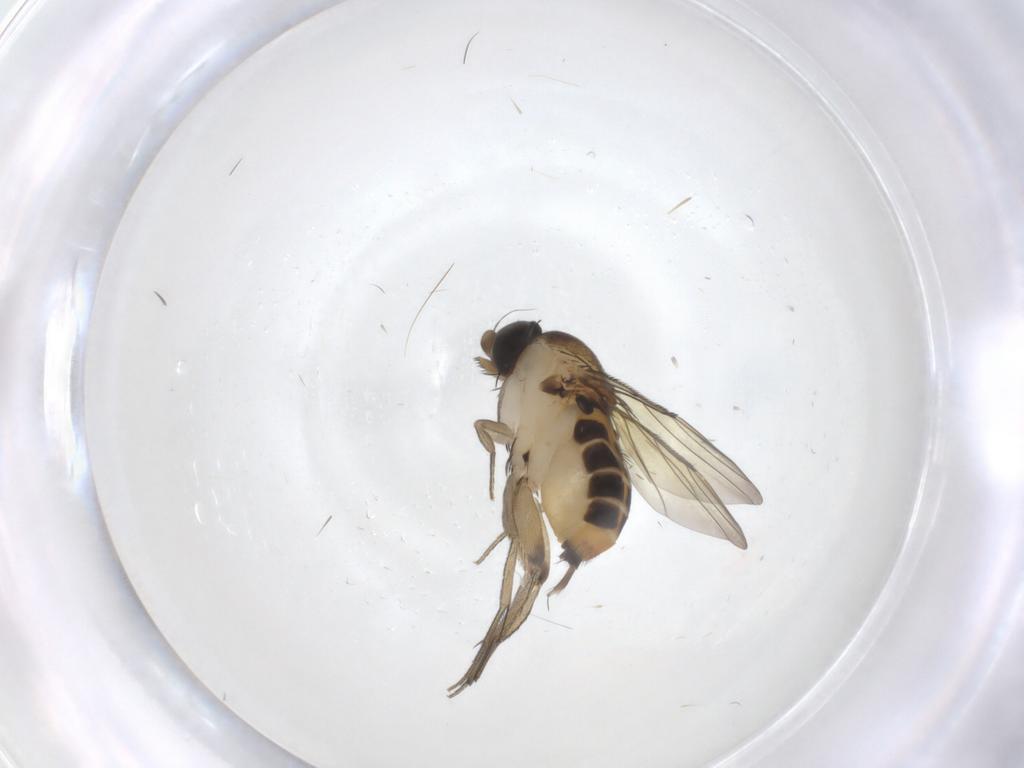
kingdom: Animalia
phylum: Arthropoda
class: Insecta
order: Diptera
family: Phoridae
